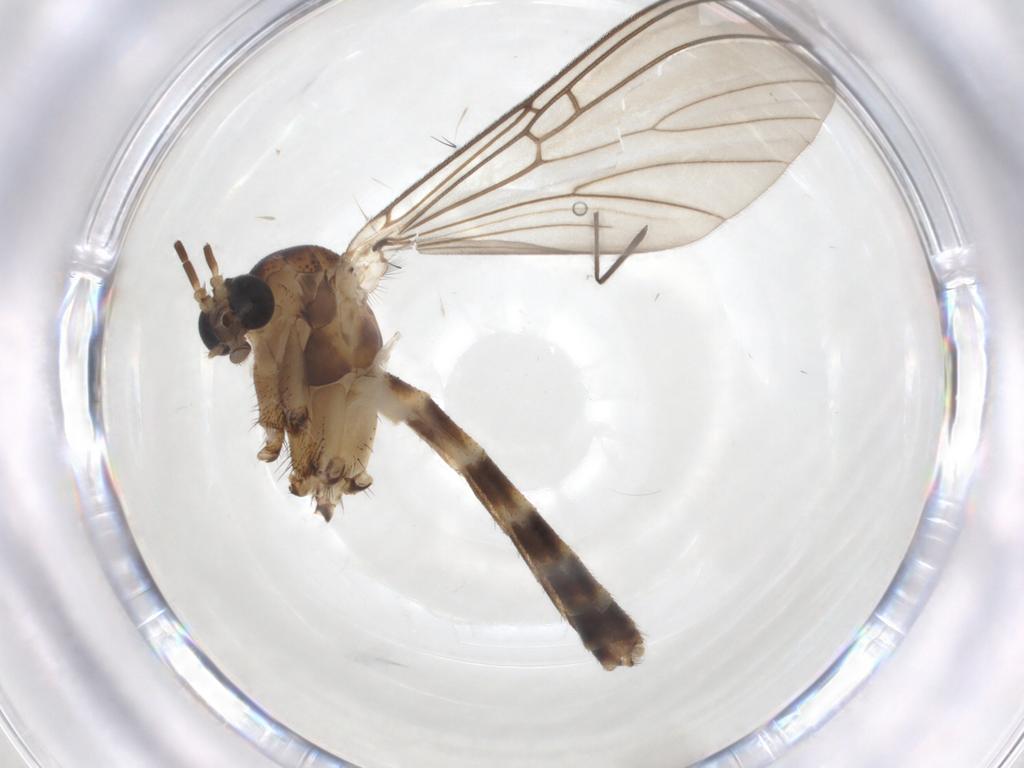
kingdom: Animalia
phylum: Arthropoda
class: Insecta
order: Diptera
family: Chironomidae
